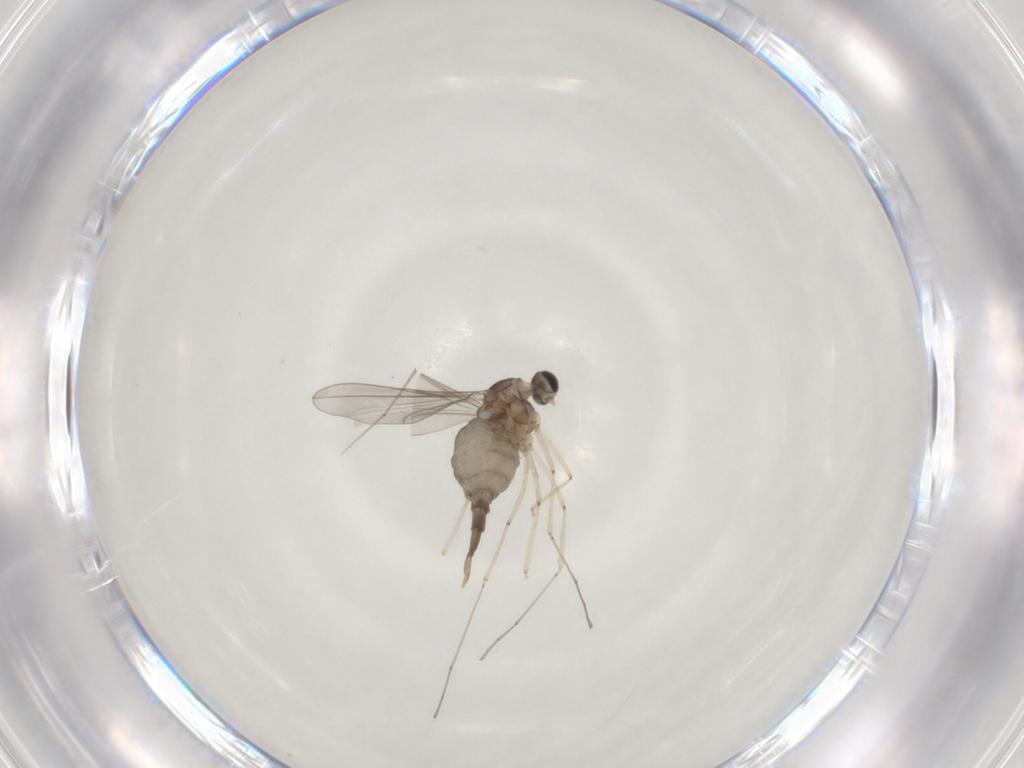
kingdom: Animalia
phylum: Arthropoda
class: Insecta
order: Diptera
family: Cecidomyiidae
